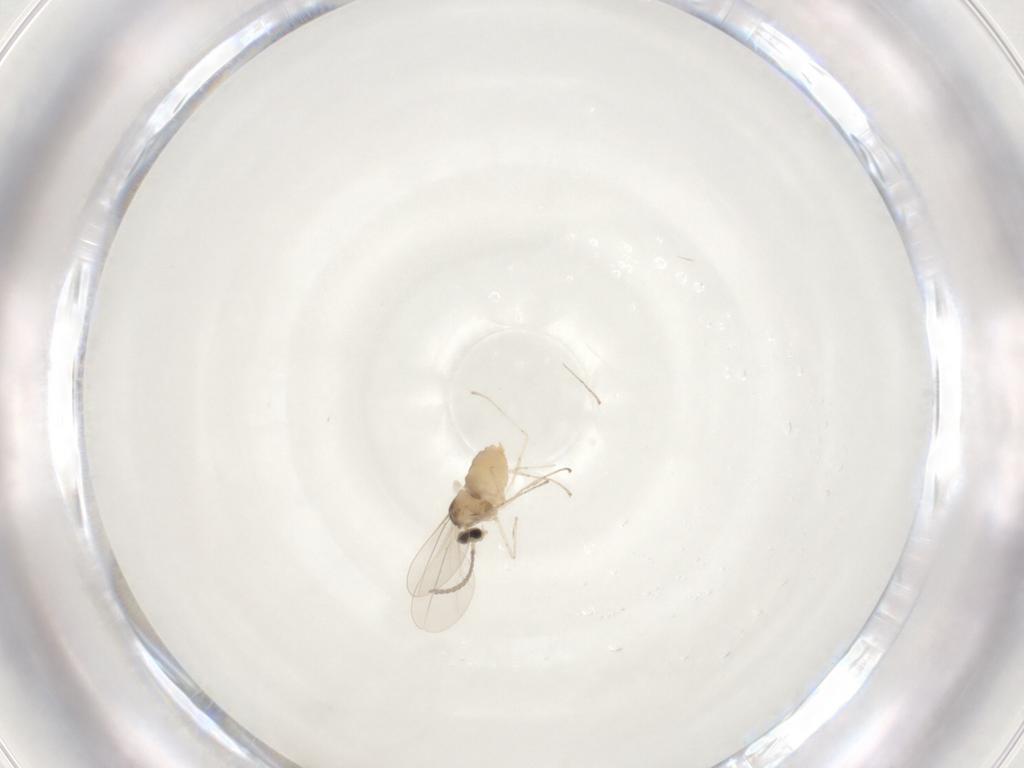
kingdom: Animalia
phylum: Arthropoda
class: Insecta
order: Diptera
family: Cecidomyiidae
